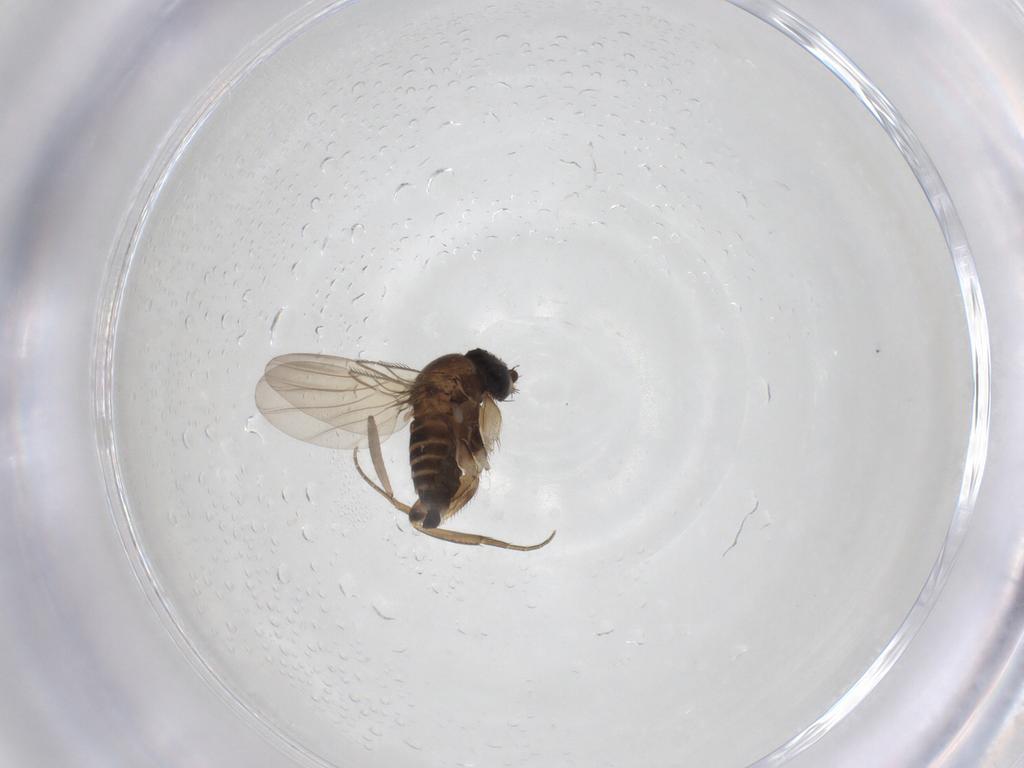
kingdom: Animalia
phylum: Arthropoda
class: Insecta
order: Diptera
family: Phoridae
